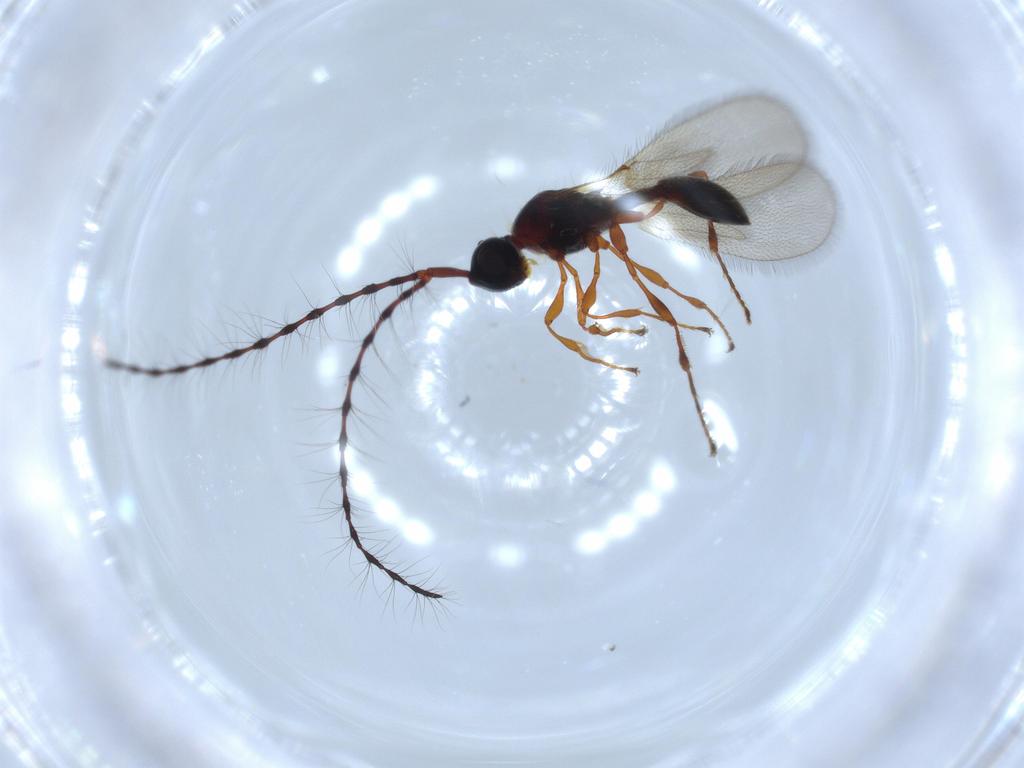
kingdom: Animalia
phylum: Arthropoda
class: Insecta
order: Hymenoptera
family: Diapriidae
